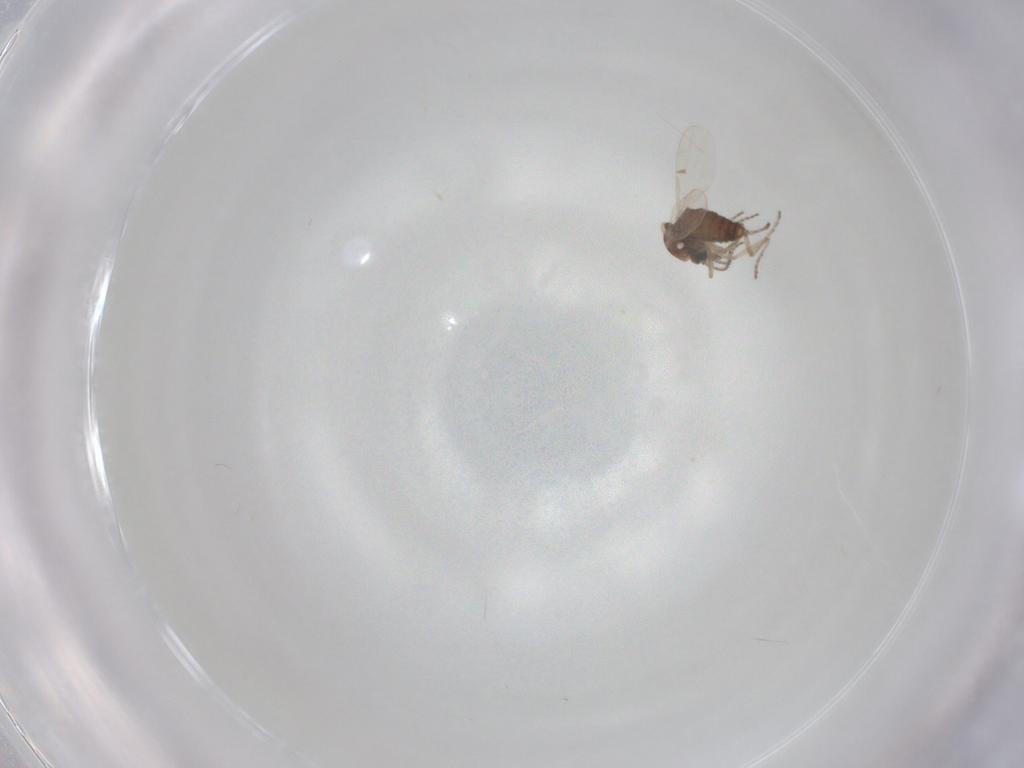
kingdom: Animalia
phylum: Arthropoda
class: Insecta
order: Diptera
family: Ceratopogonidae
